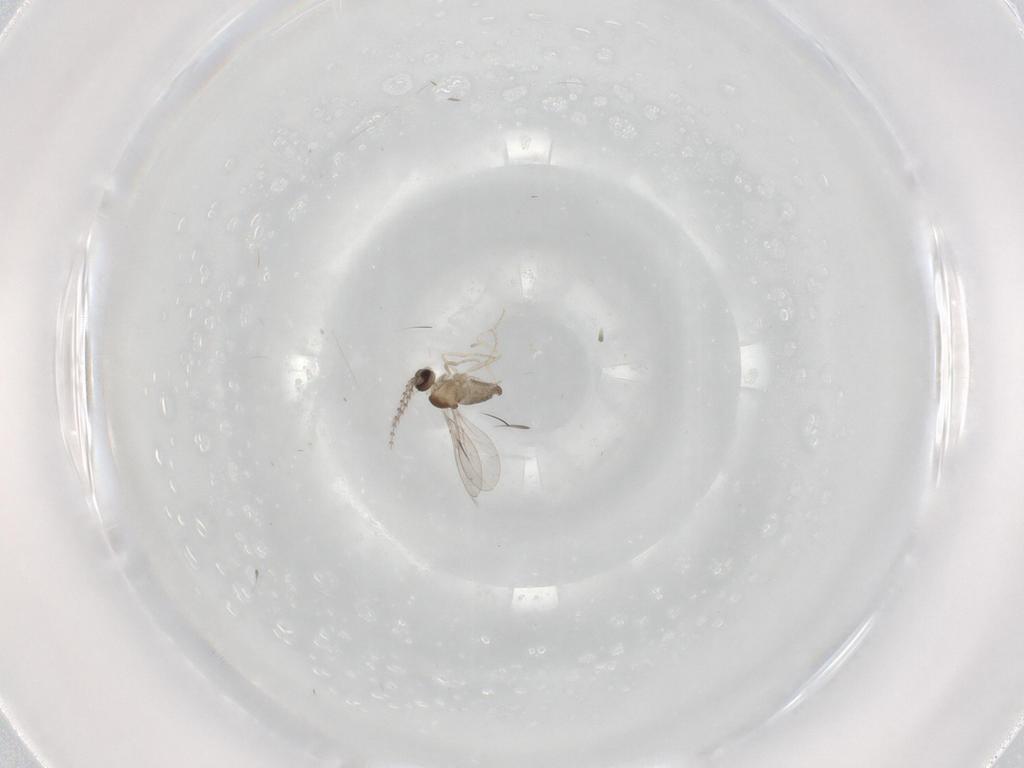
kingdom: Animalia
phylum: Arthropoda
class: Insecta
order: Diptera
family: Cecidomyiidae
